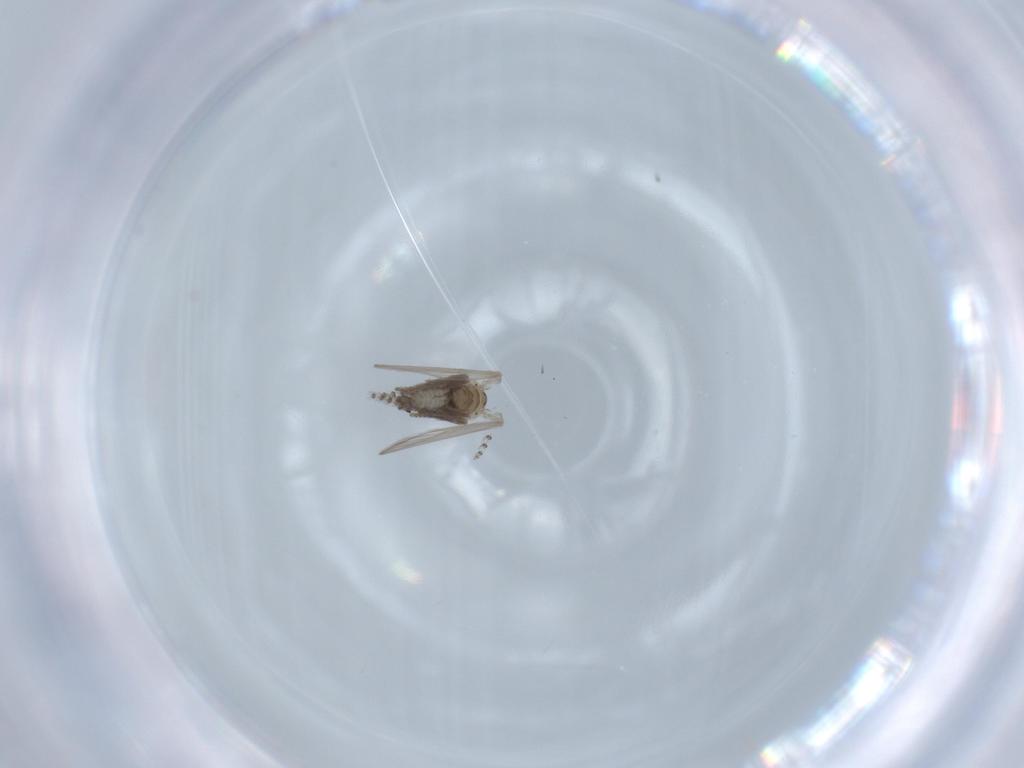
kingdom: Animalia
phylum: Arthropoda
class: Insecta
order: Diptera
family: Psychodidae
